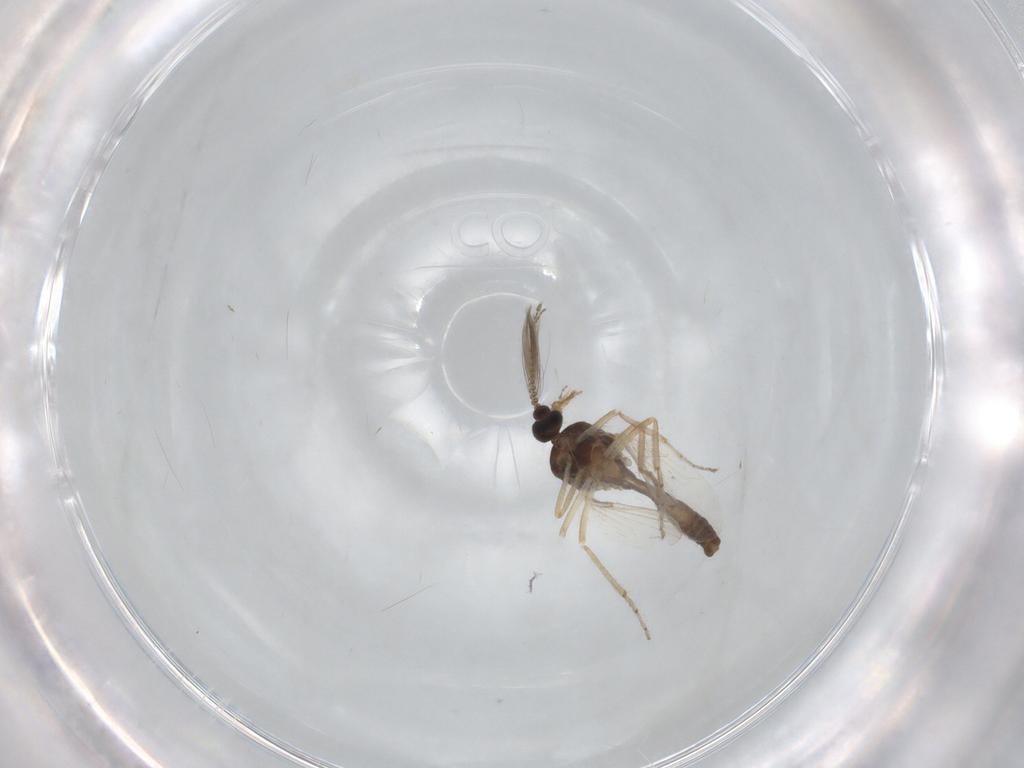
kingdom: Animalia
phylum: Arthropoda
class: Insecta
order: Diptera
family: Ceratopogonidae
